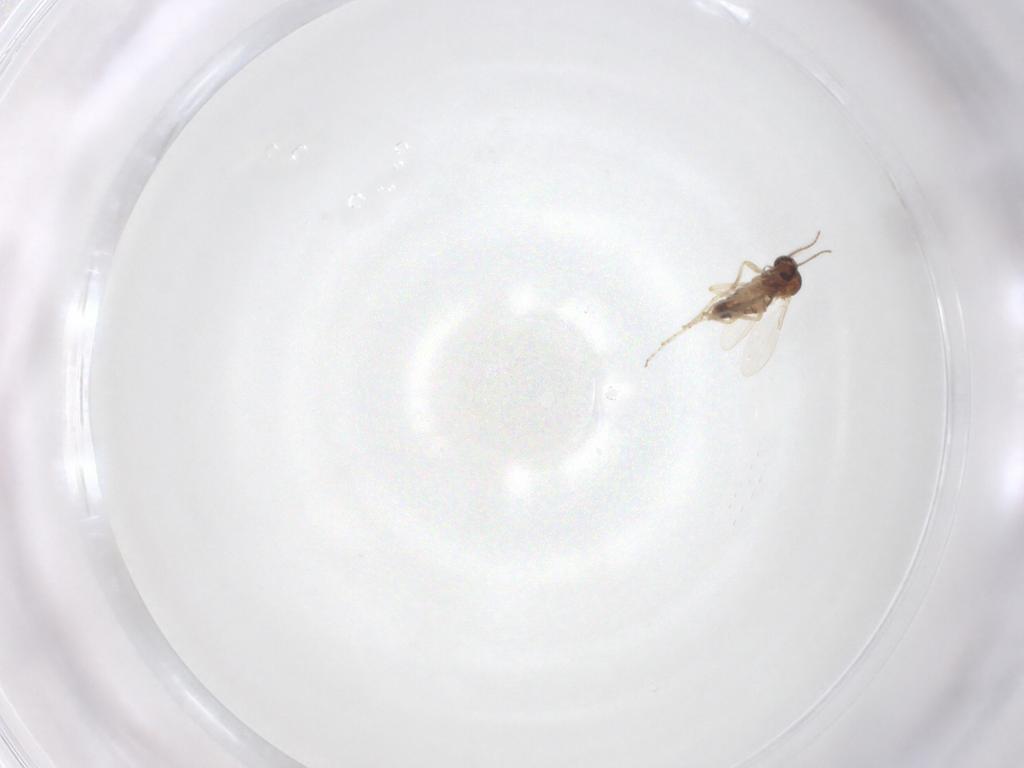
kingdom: Animalia
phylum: Arthropoda
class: Insecta
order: Diptera
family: Ceratopogonidae
